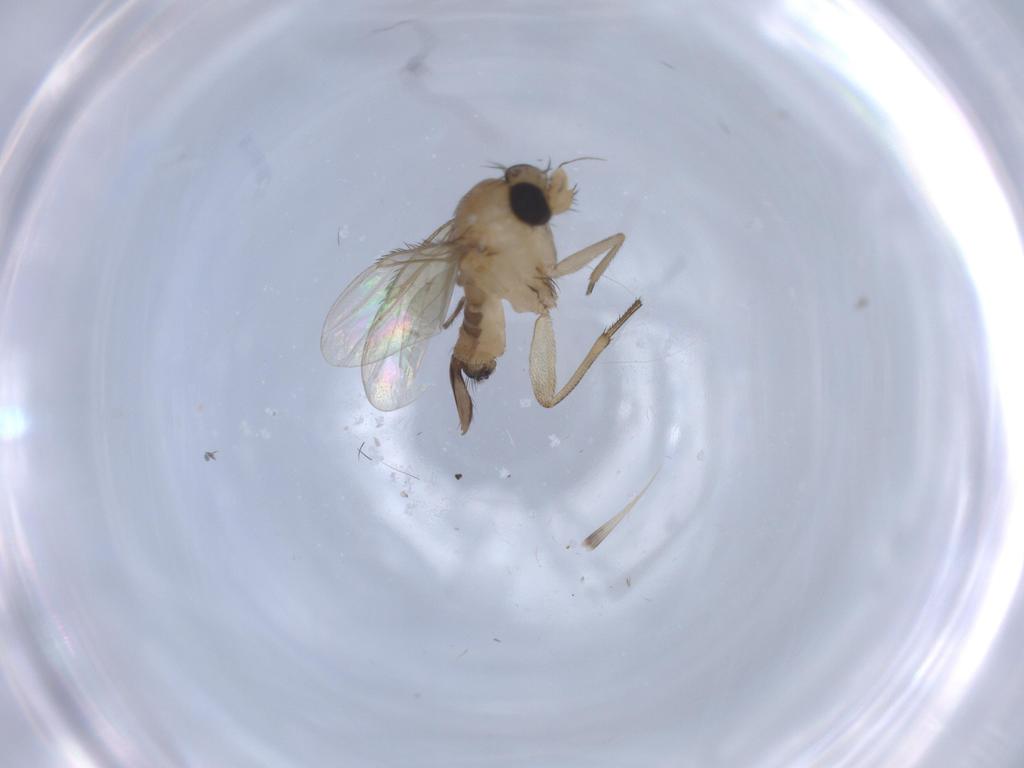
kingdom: Animalia
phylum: Arthropoda
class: Insecta
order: Diptera
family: Phoridae
